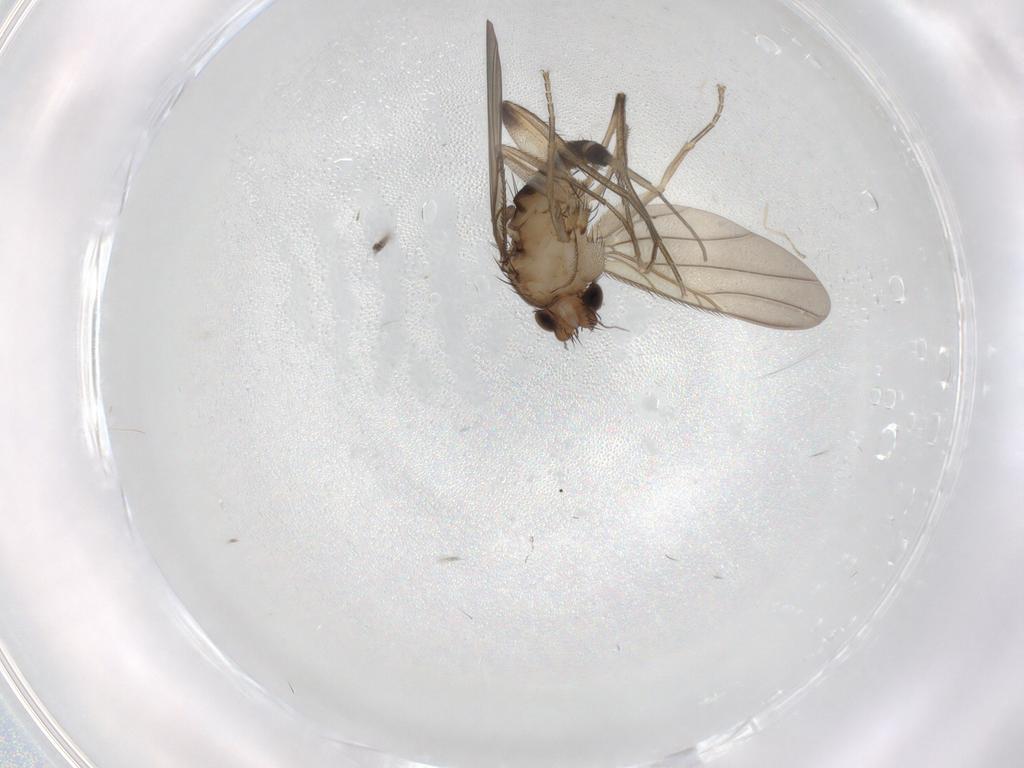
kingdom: Animalia
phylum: Arthropoda
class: Insecta
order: Diptera
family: Phoridae
